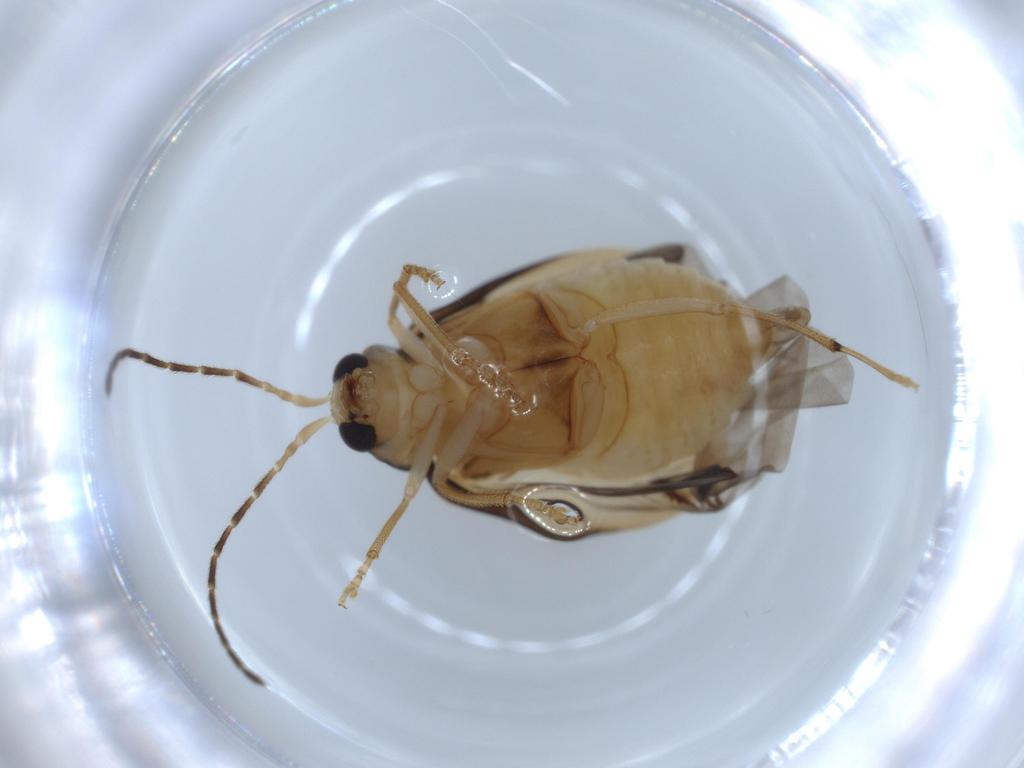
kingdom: Animalia
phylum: Arthropoda
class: Insecta
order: Coleoptera
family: Chrysomelidae
